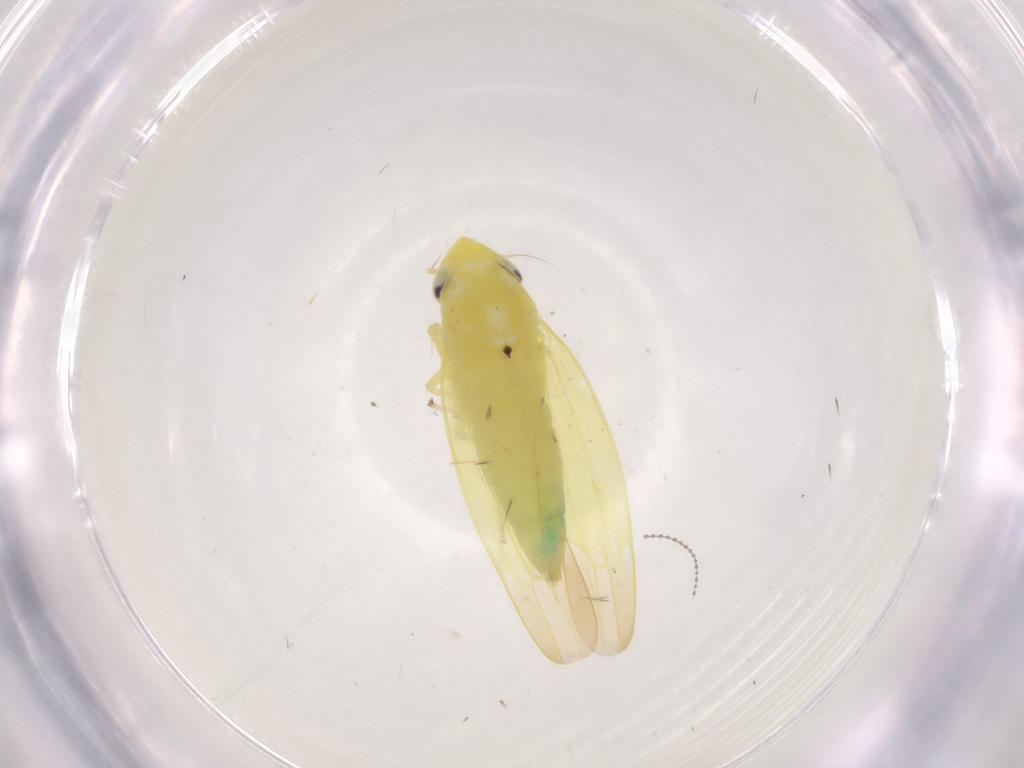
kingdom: Animalia
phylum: Arthropoda
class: Insecta
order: Hemiptera
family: Cicadellidae
